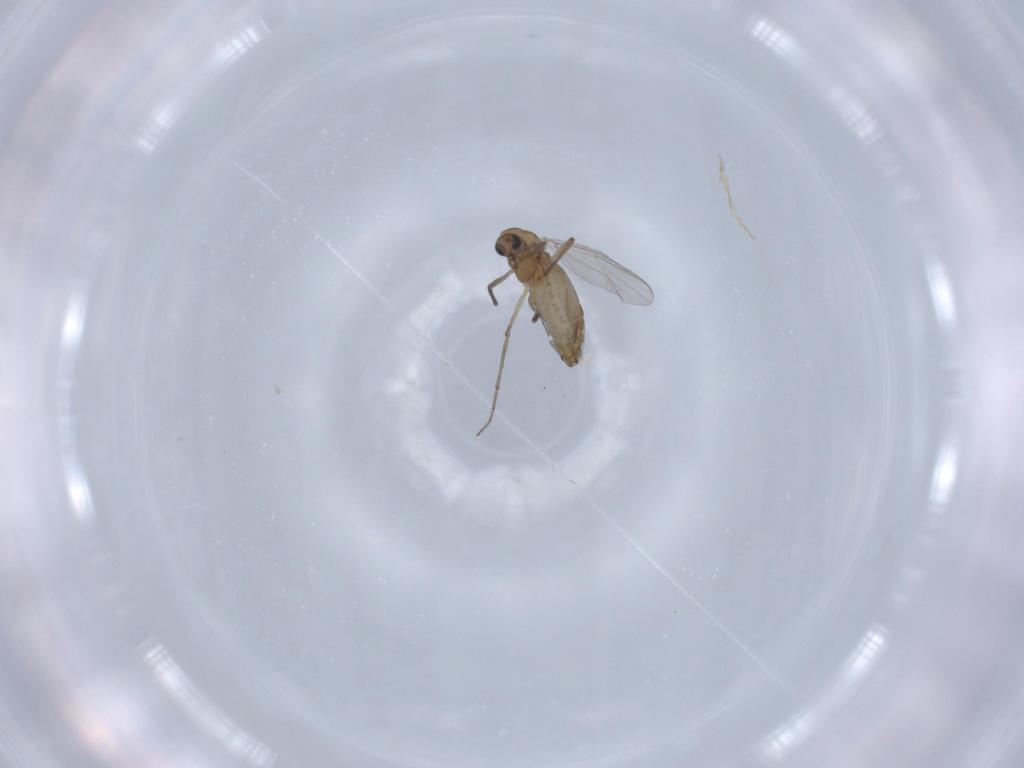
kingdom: Animalia
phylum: Arthropoda
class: Insecta
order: Diptera
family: Chironomidae
